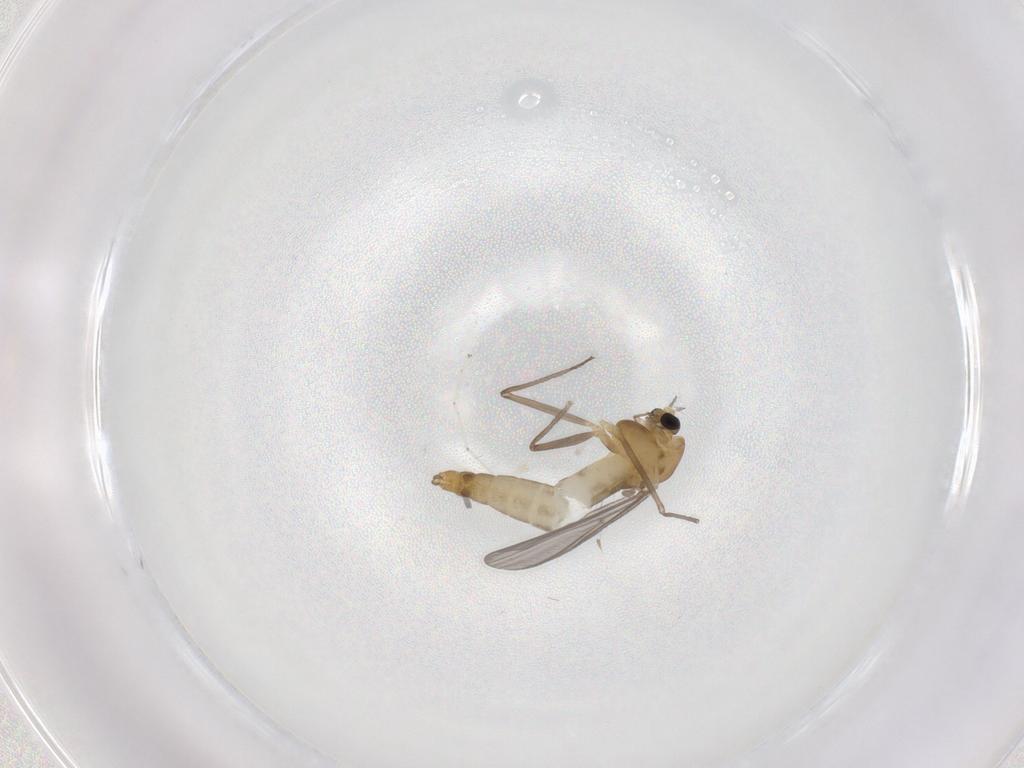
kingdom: Animalia
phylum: Arthropoda
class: Insecta
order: Diptera
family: Chironomidae
